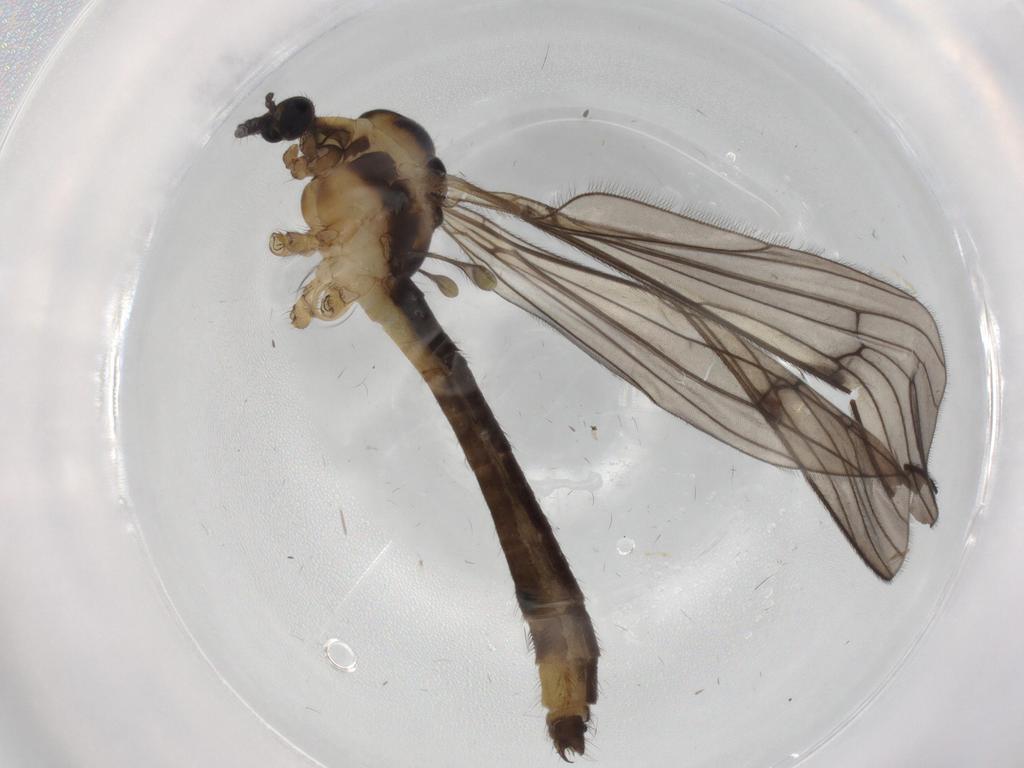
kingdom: Animalia
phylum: Arthropoda
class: Insecta
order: Diptera
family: Limoniidae
